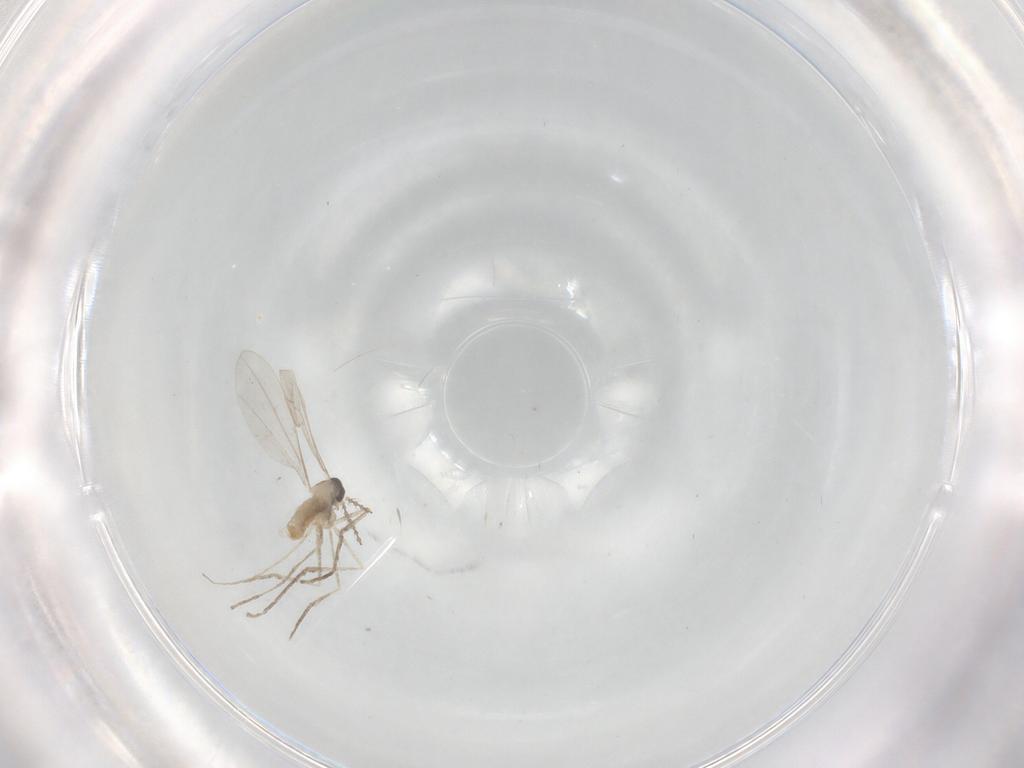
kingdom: Animalia
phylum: Arthropoda
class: Insecta
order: Diptera
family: Cecidomyiidae
